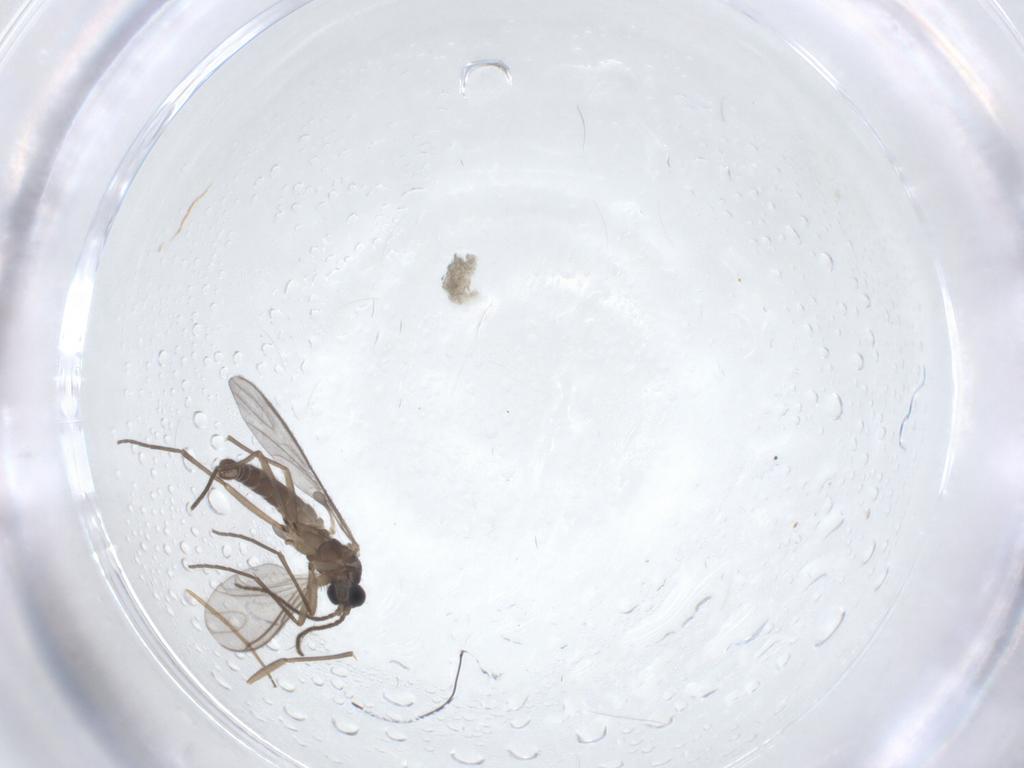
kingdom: Animalia
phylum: Arthropoda
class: Insecta
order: Diptera
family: Sciaridae
